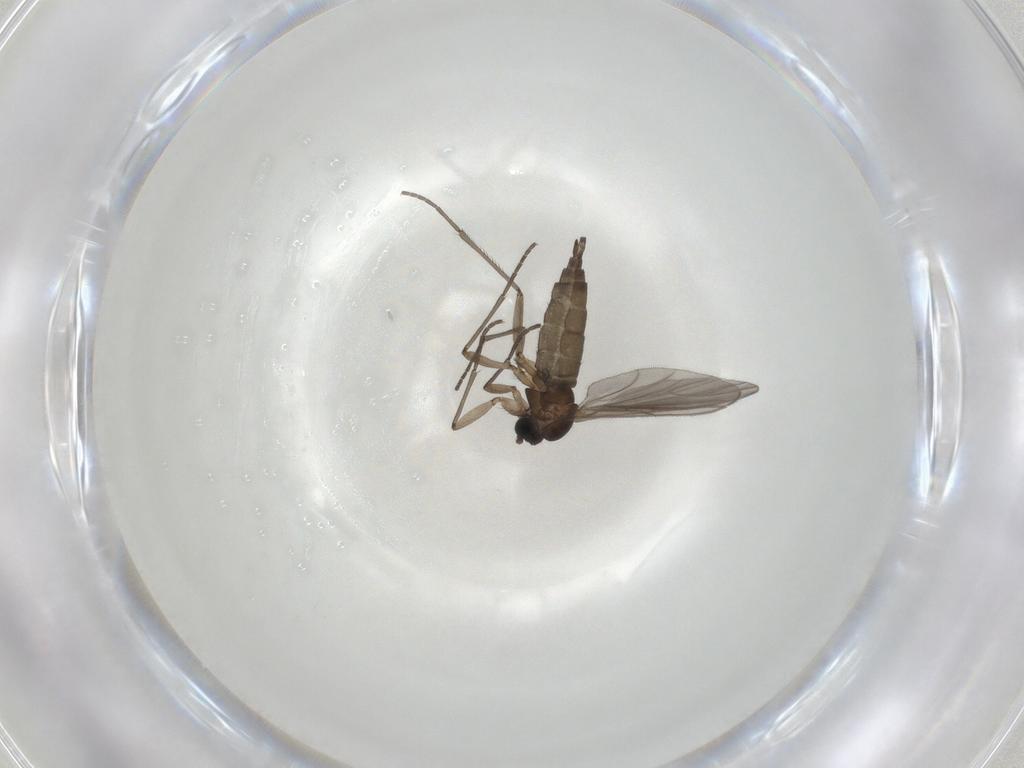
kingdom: Animalia
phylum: Arthropoda
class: Insecta
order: Diptera
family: Sciaridae
